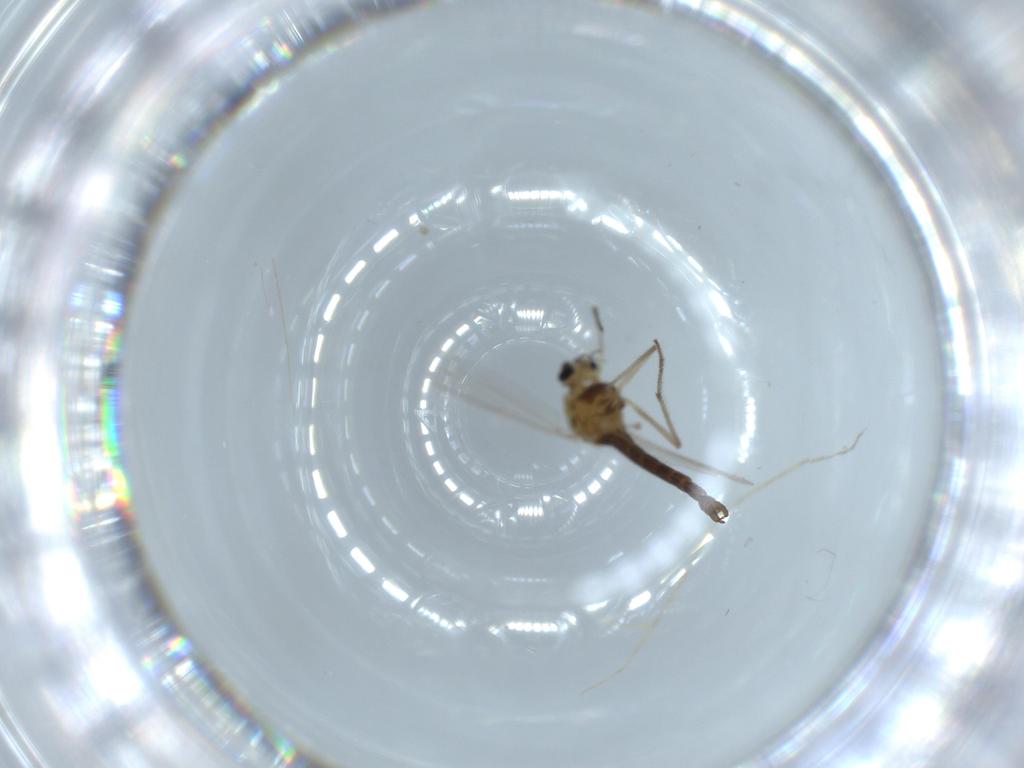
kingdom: Animalia
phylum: Arthropoda
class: Insecta
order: Diptera
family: Chironomidae
